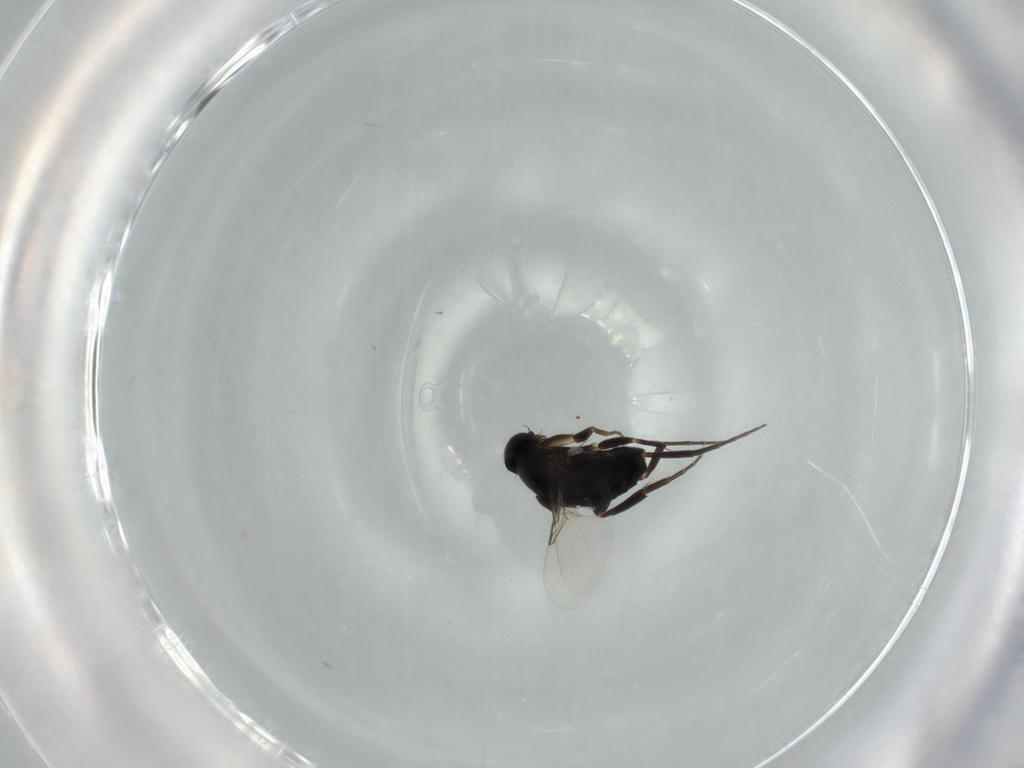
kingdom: Animalia
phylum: Arthropoda
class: Insecta
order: Diptera
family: Phoridae
